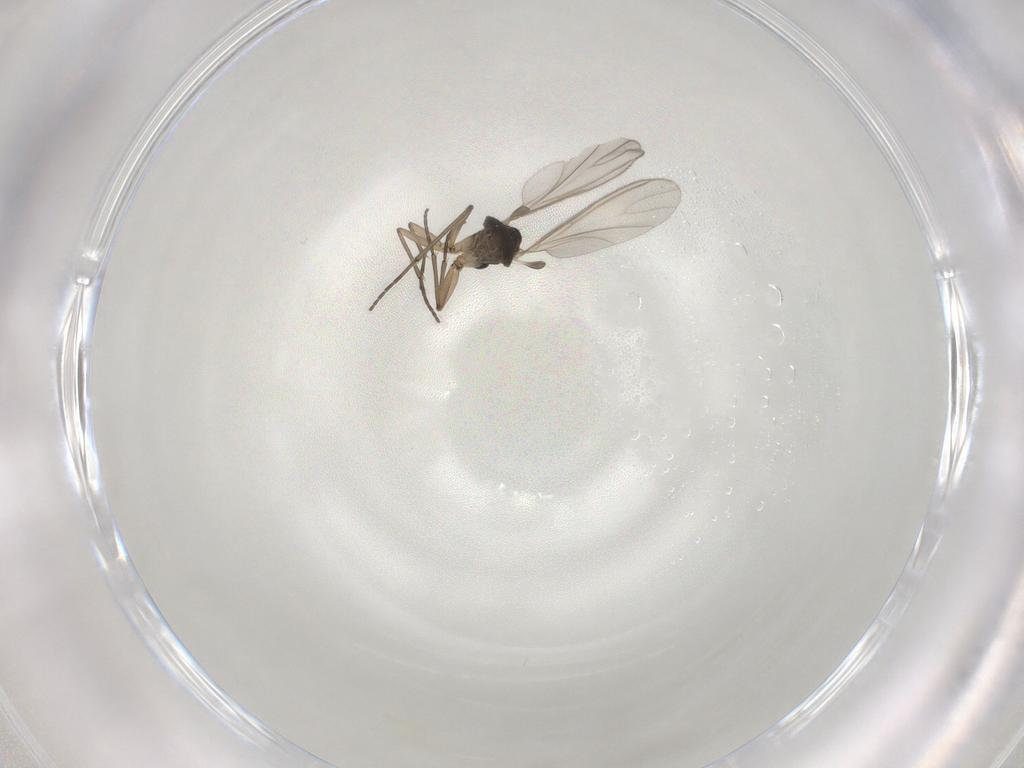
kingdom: Animalia
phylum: Arthropoda
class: Insecta
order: Diptera
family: Sciaridae
